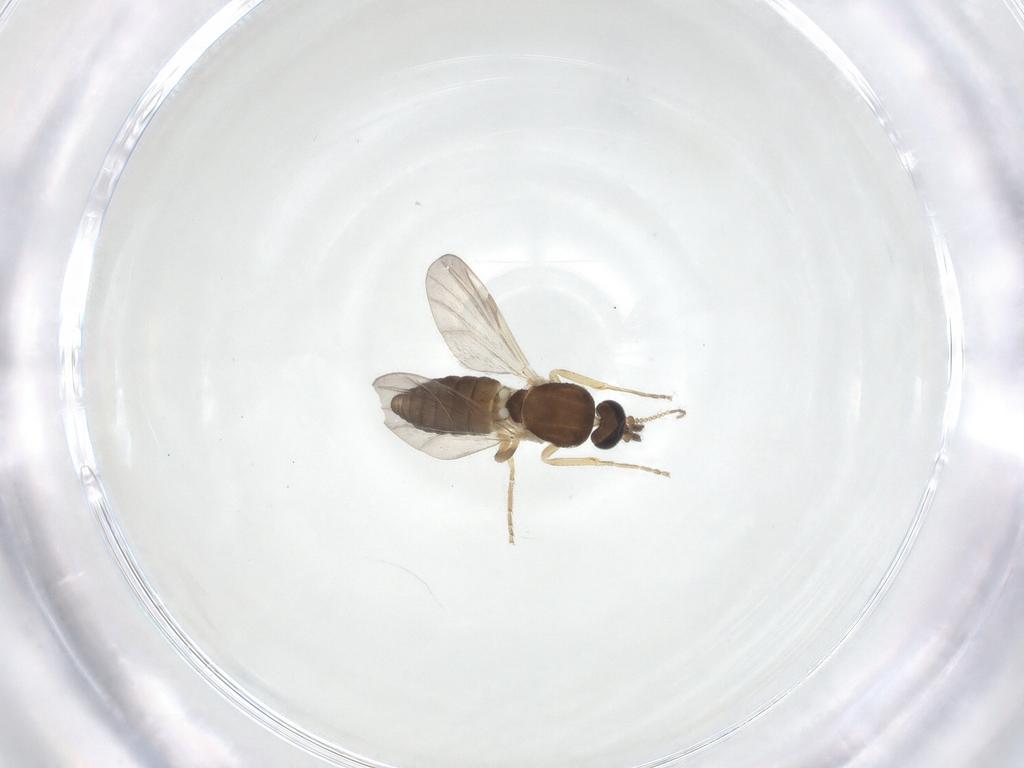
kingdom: Animalia
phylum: Arthropoda
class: Insecta
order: Diptera
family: Ceratopogonidae
